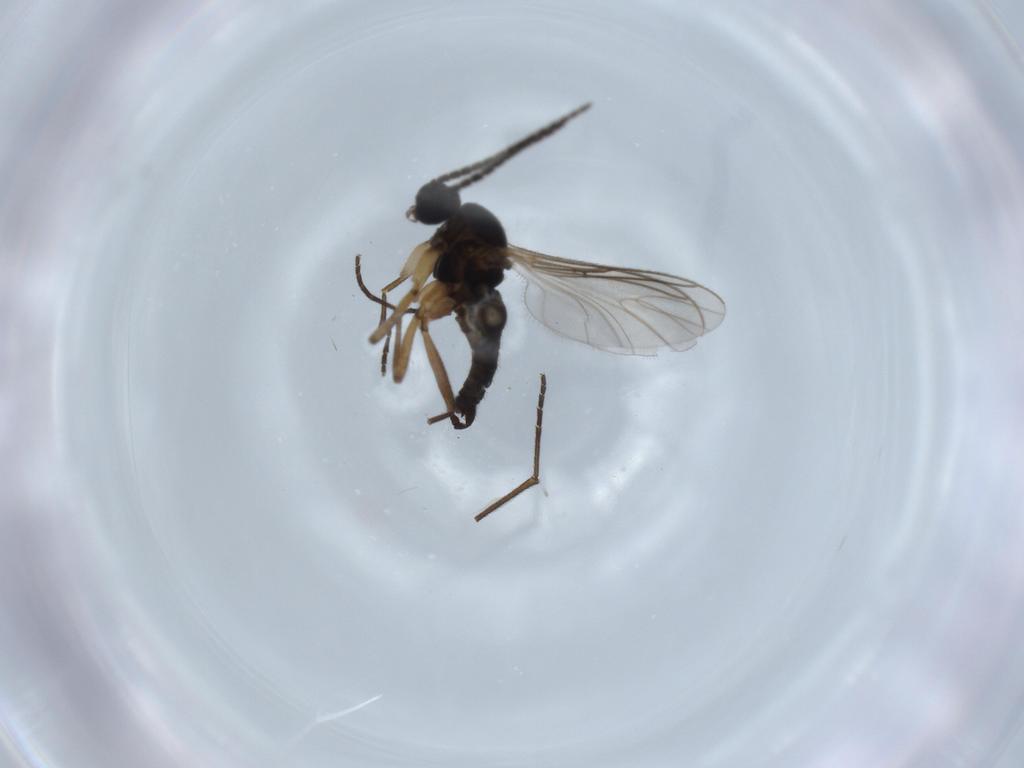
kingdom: Animalia
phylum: Arthropoda
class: Insecta
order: Diptera
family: Sciaridae
